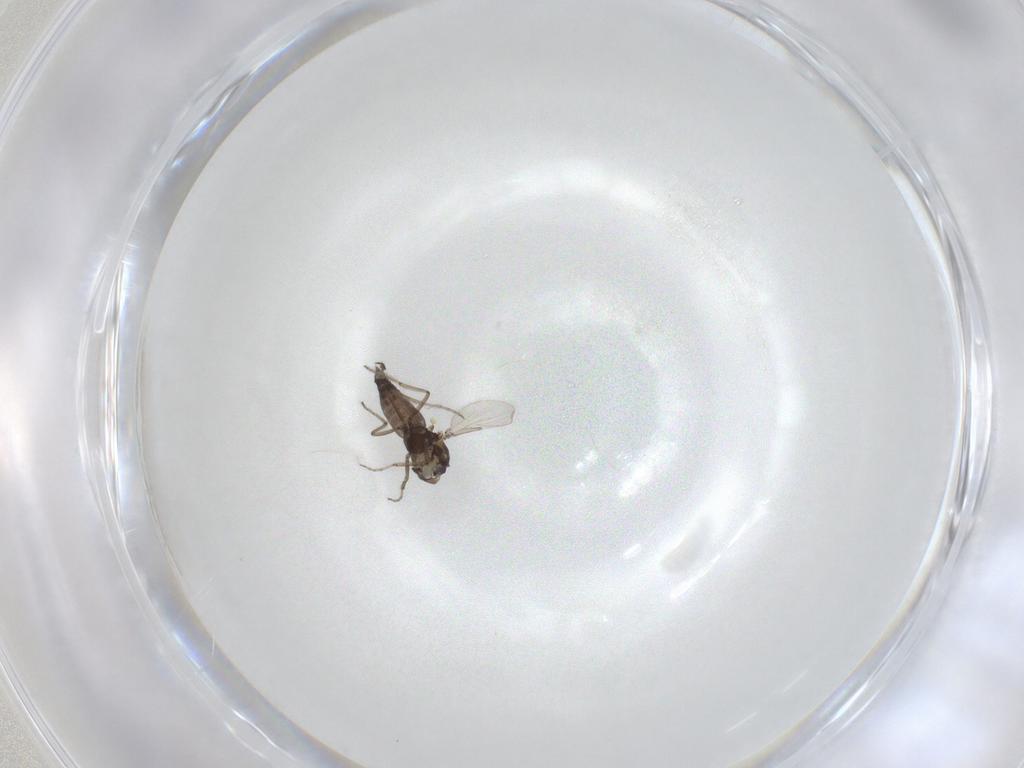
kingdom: Animalia
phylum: Arthropoda
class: Insecta
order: Diptera
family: Ceratopogonidae
